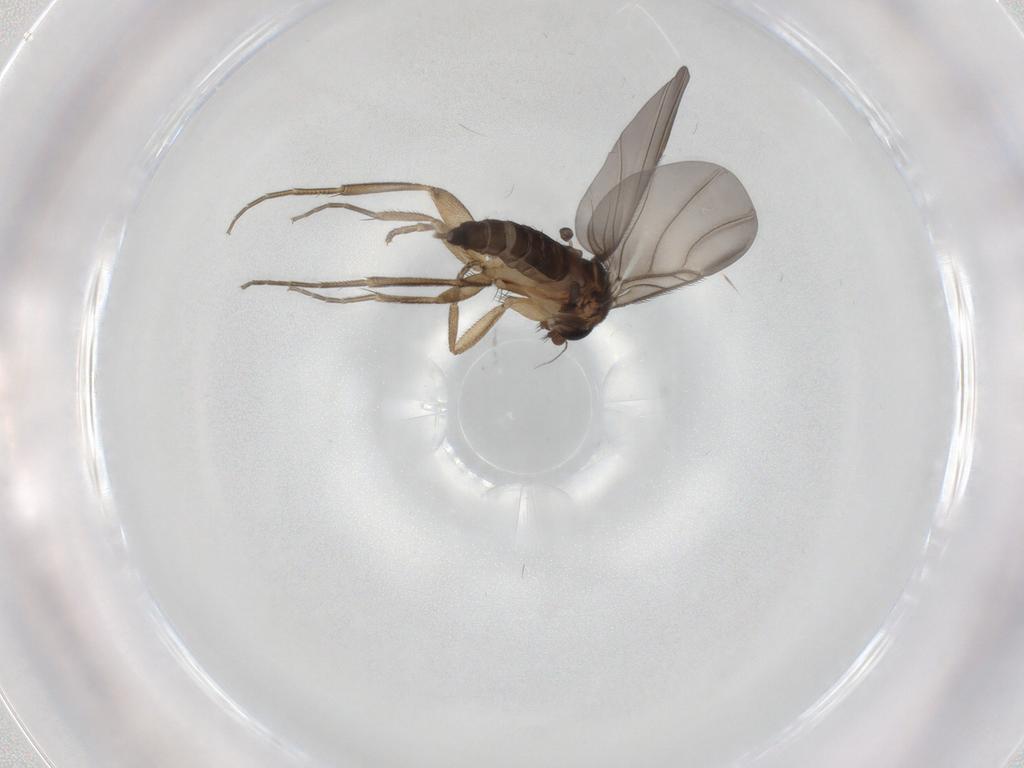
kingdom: Animalia
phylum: Arthropoda
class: Insecta
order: Diptera
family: Phoridae
